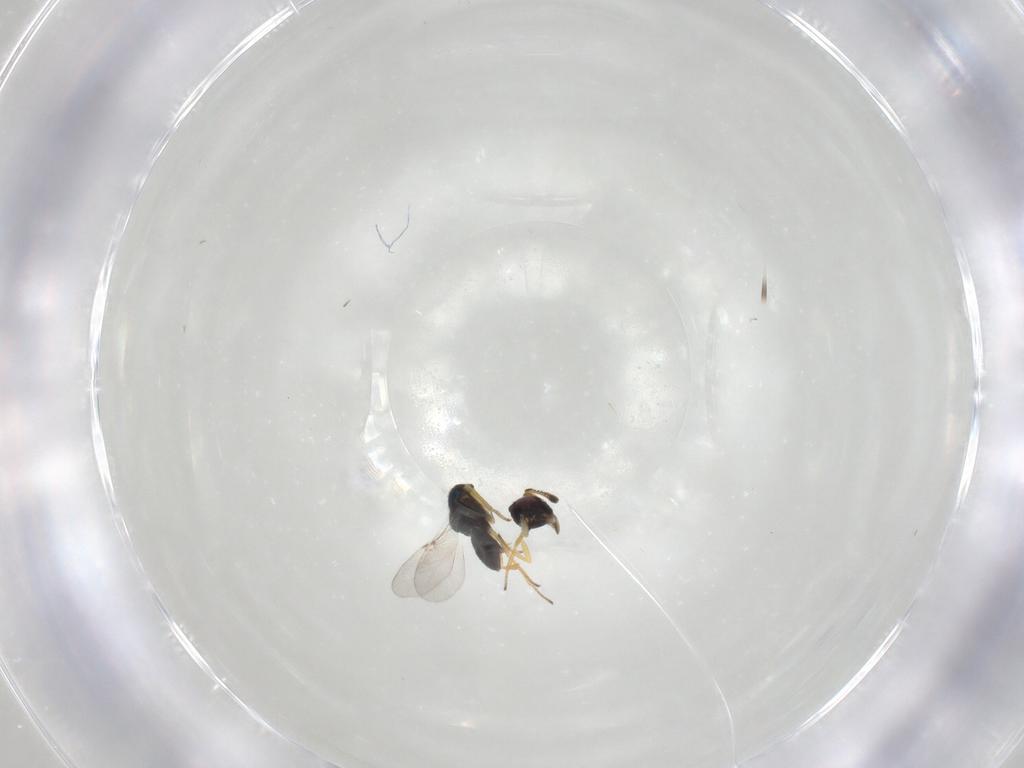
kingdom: Animalia
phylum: Arthropoda
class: Insecta
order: Hymenoptera
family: Encyrtidae
